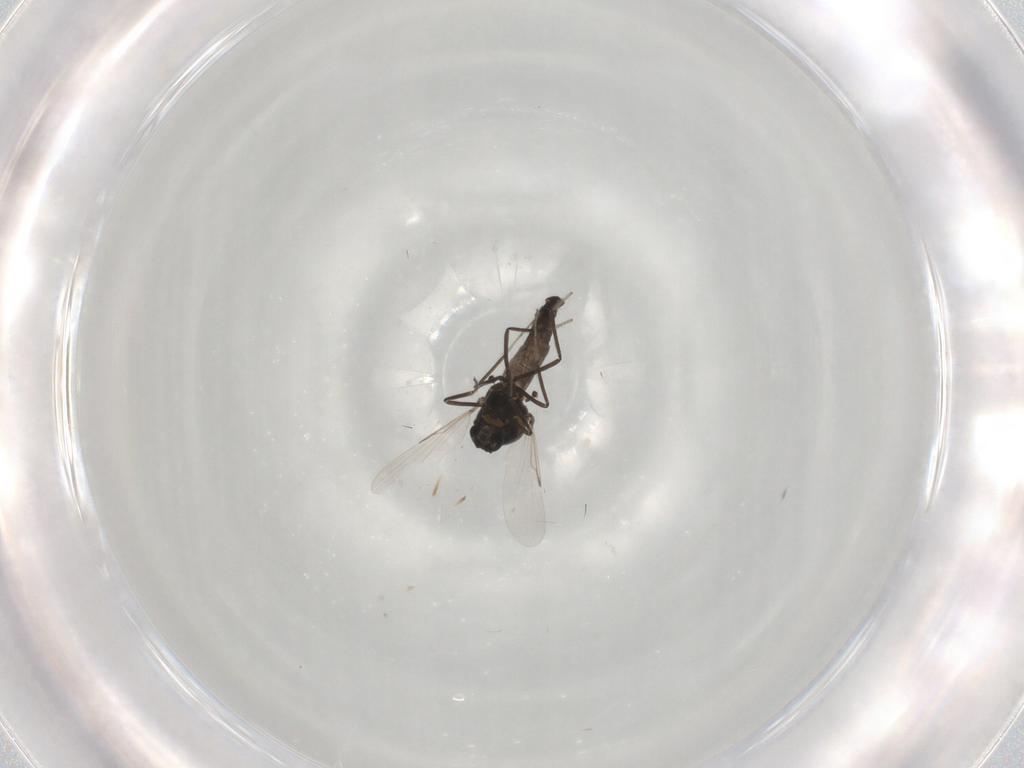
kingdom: Animalia
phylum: Arthropoda
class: Insecta
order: Diptera
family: Ceratopogonidae
